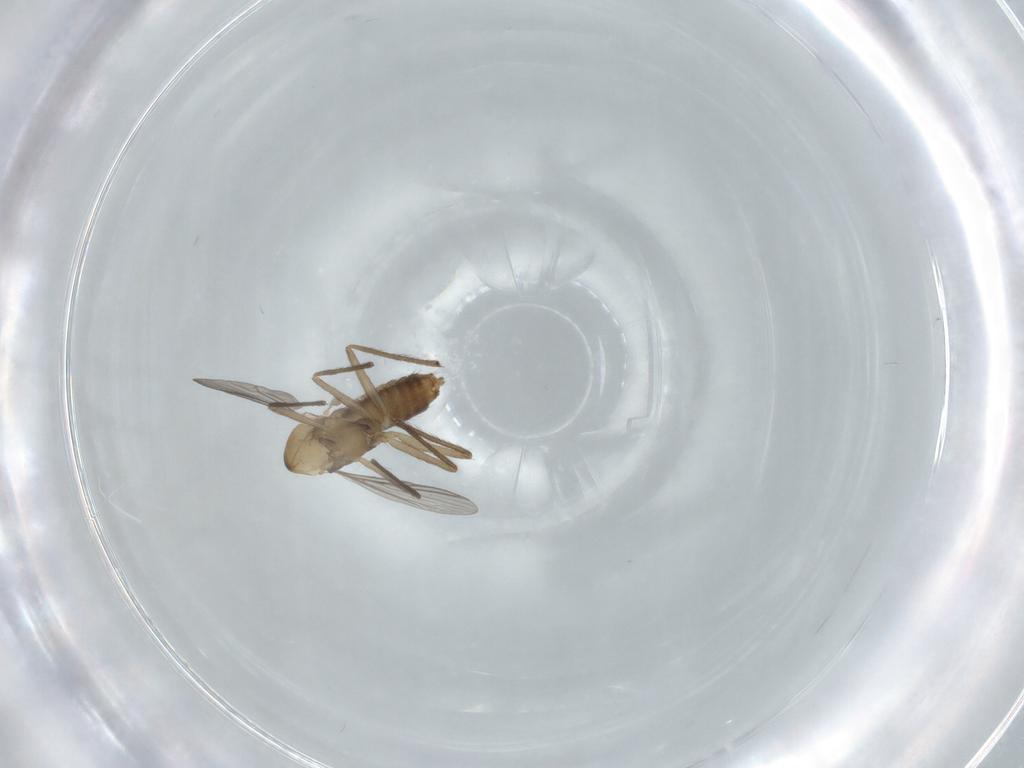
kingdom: Animalia
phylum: Arthropoda
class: Insecta
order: Diptera
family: Chironomidae
